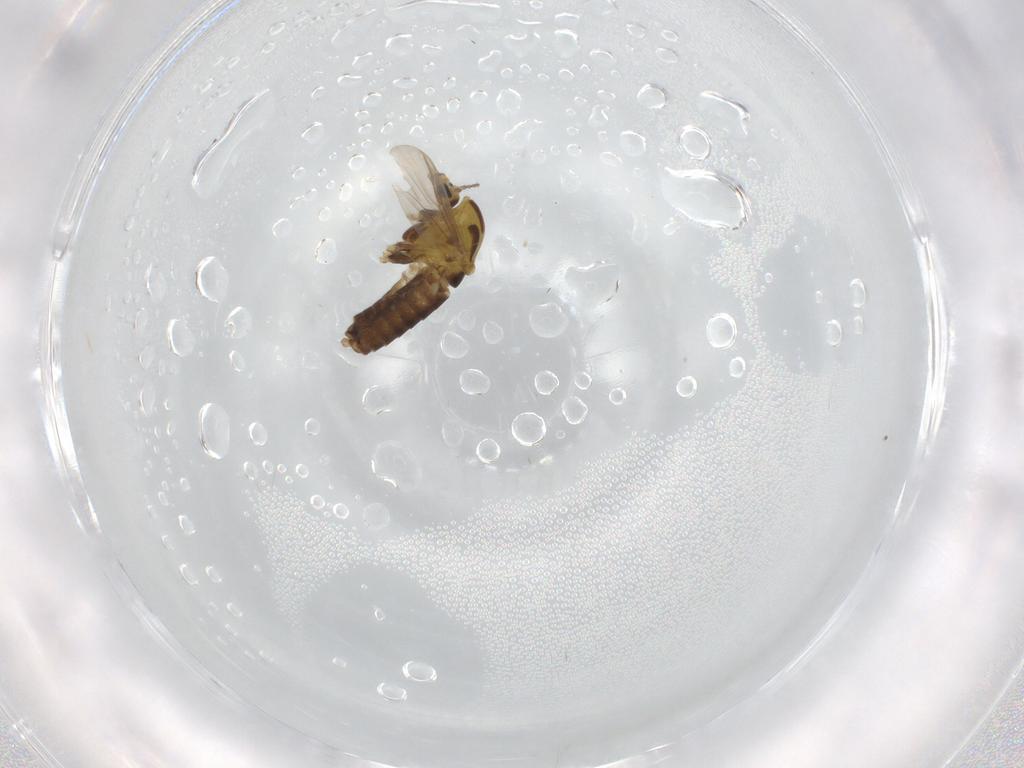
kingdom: Animalia
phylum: Arthropoda
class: Insecta
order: Diptera
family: Chironomidae
